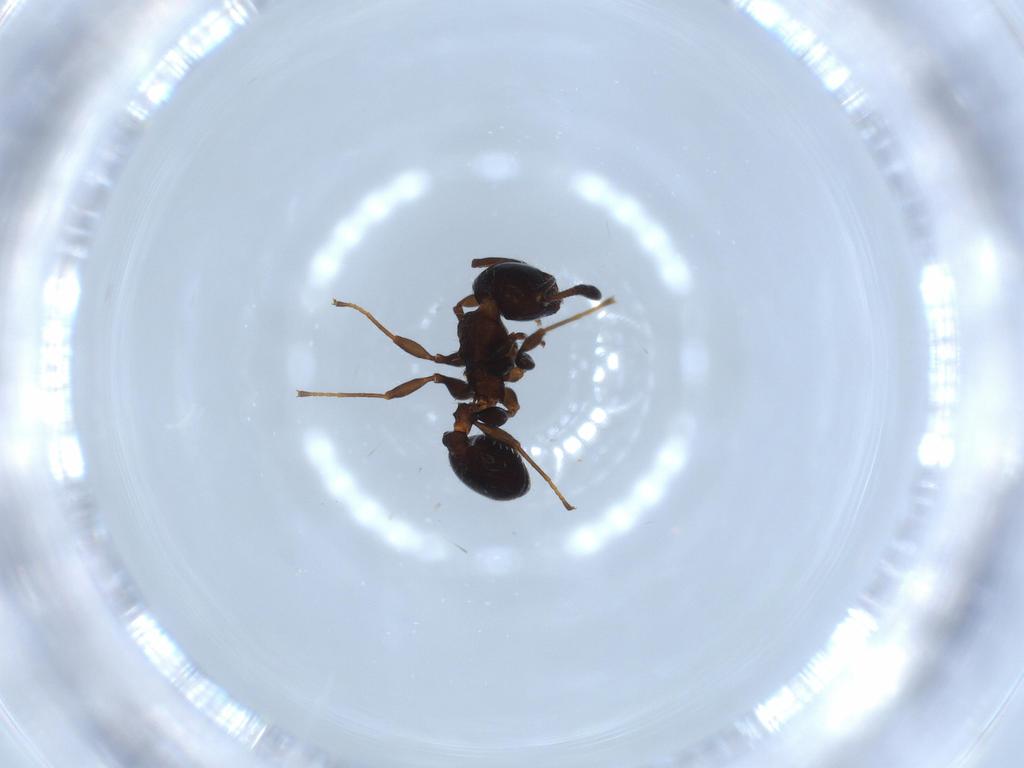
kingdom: Animalia
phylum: Arthropoda
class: Insecta
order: Hymenoptera
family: Formicidae
